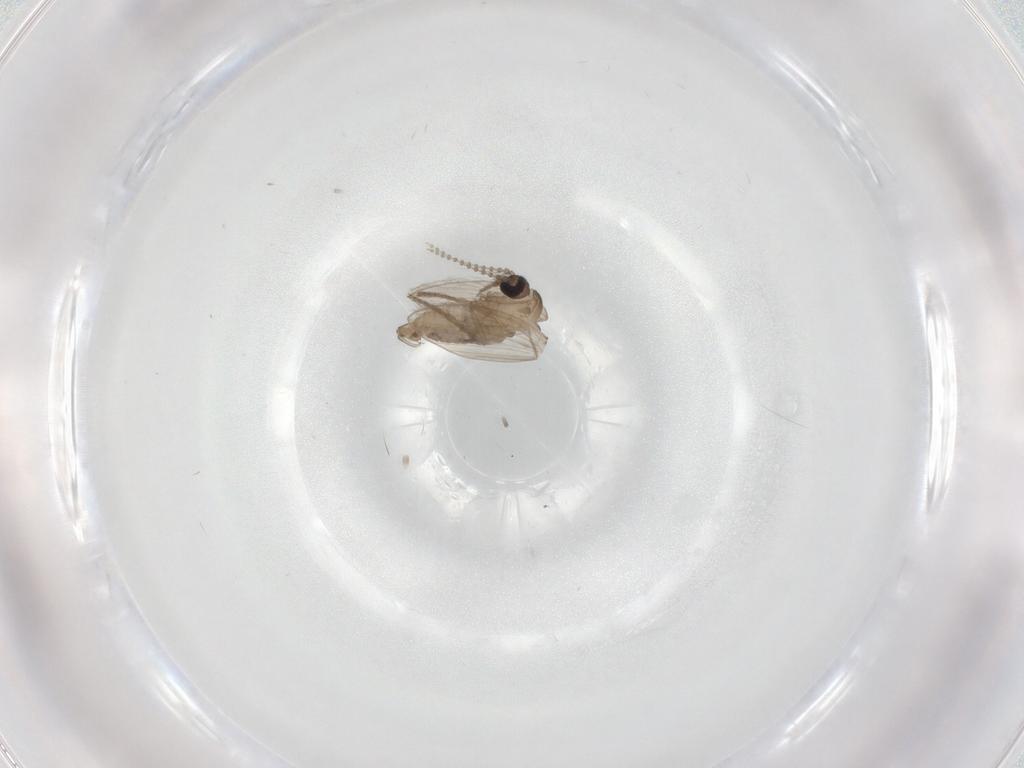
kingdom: Animalia
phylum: Arthropoda
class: Insecta
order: Diptera
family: Psychodidae
